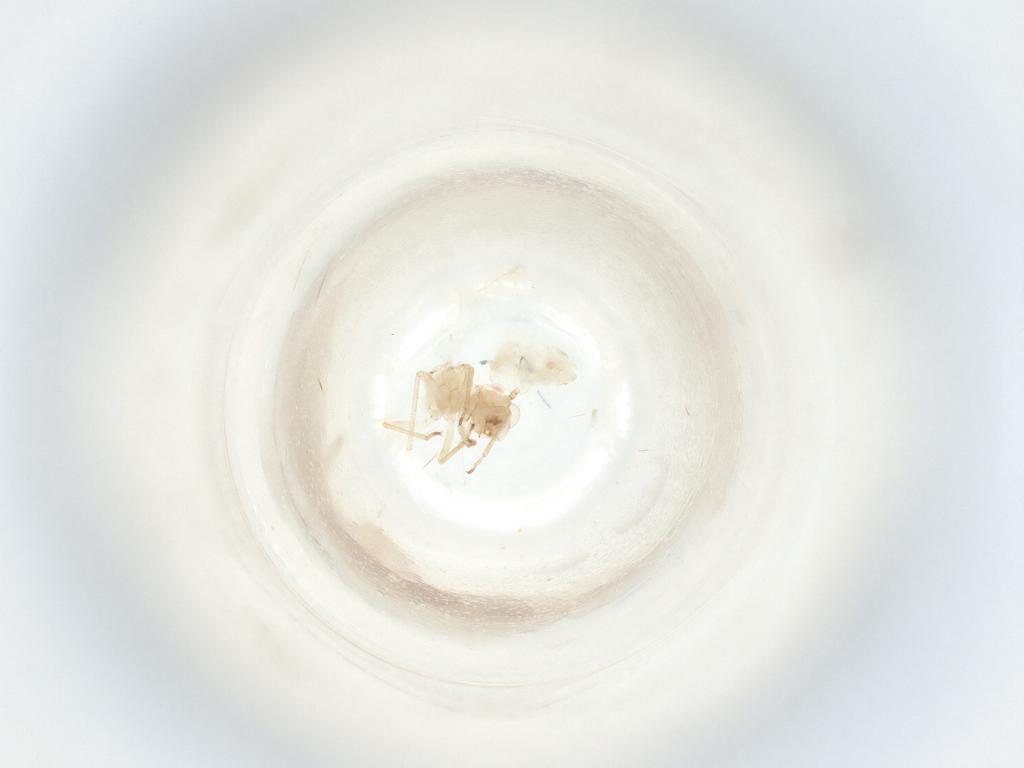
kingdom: Animalia
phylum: Arthropoda
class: Insecta
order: Psocodea
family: Caeciliusidae
